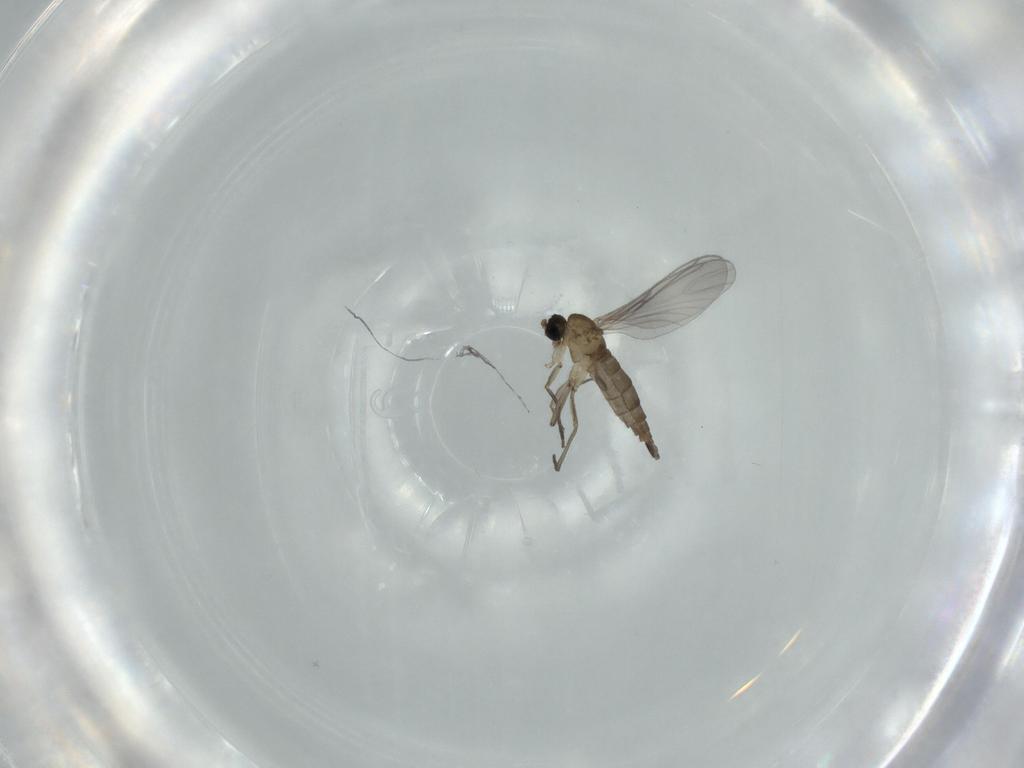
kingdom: Animalia
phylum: Arthropoda
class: Insecta
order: Diptera
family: Sciaridae
